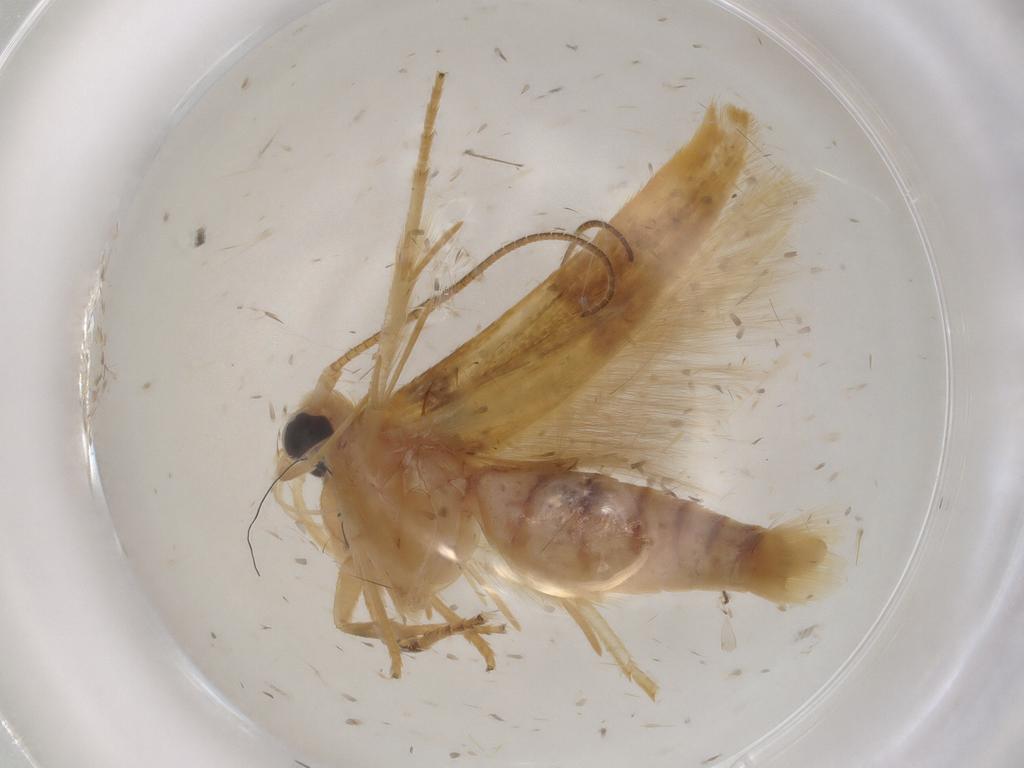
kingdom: Animalia
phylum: Arthropoda
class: Insecta
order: Lepidoptera
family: Stathmopodidae
